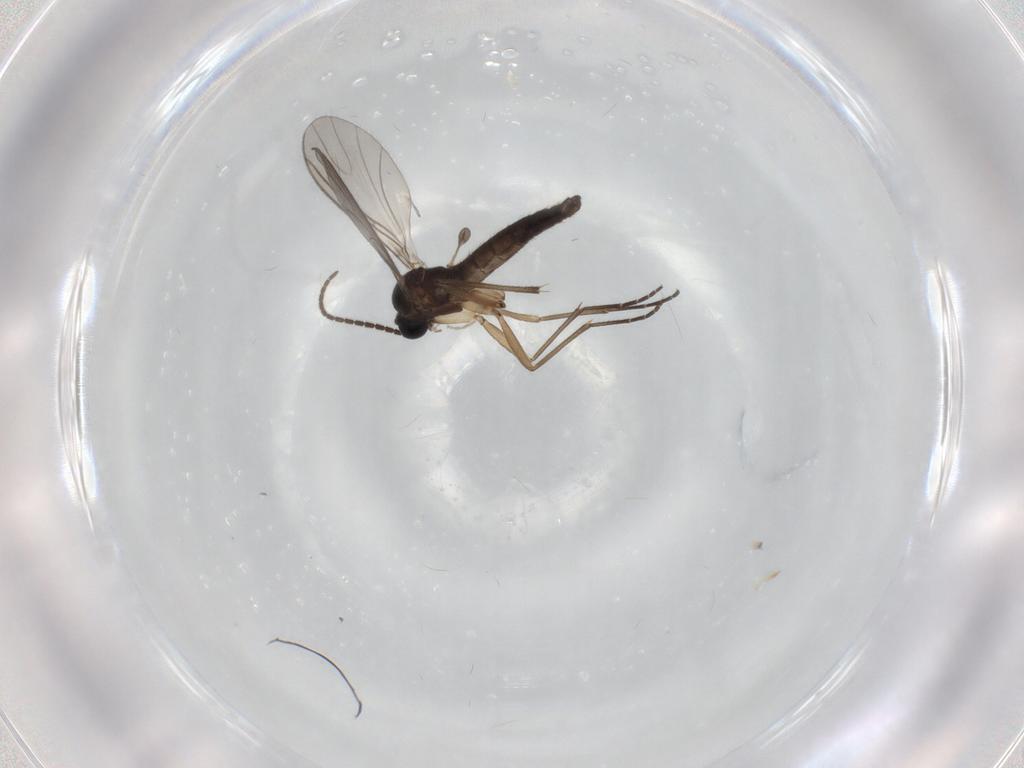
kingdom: Animalia
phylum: Arthropoda
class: Insecta
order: Diptera
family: Sciaridae
